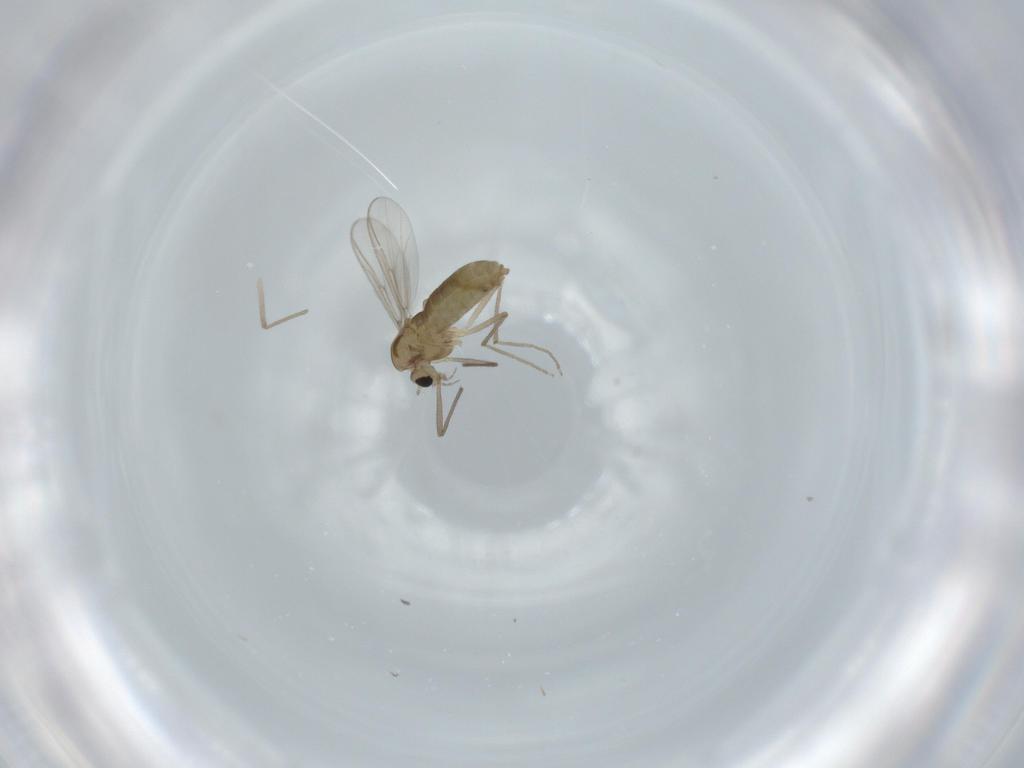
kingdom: Animalia
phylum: Arthropoda
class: Insecta
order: Diptera
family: Chironomidae
